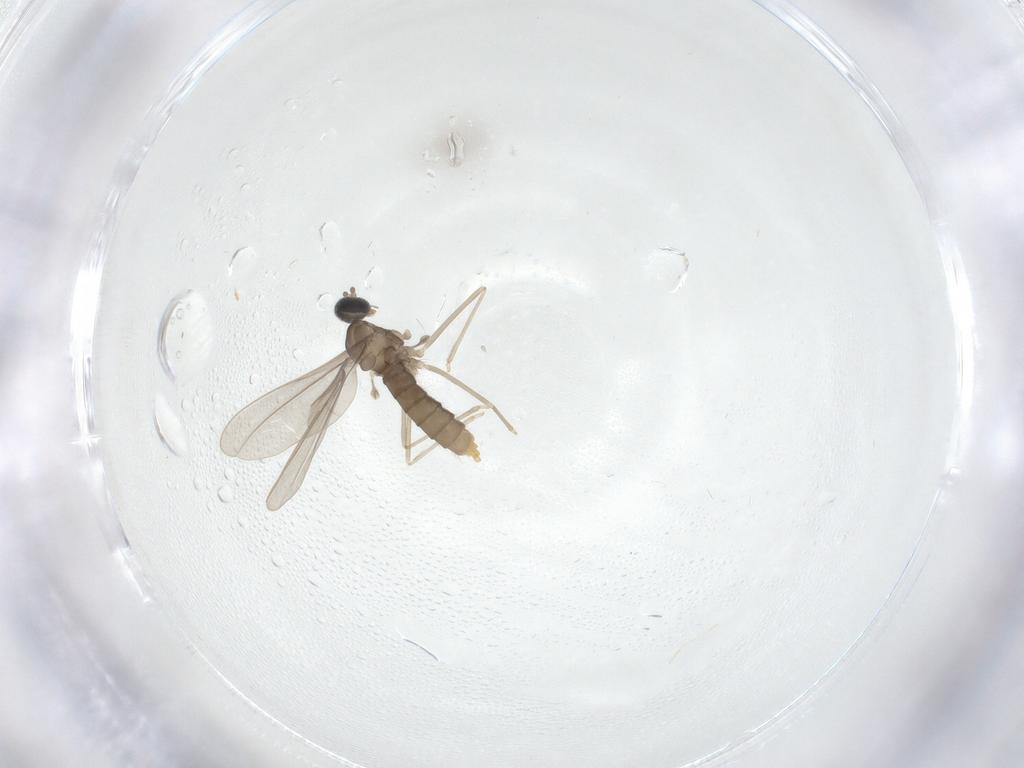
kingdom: Animalia
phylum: Arthropoda
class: Insecta
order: Diptera
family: Cecidomyiidae
